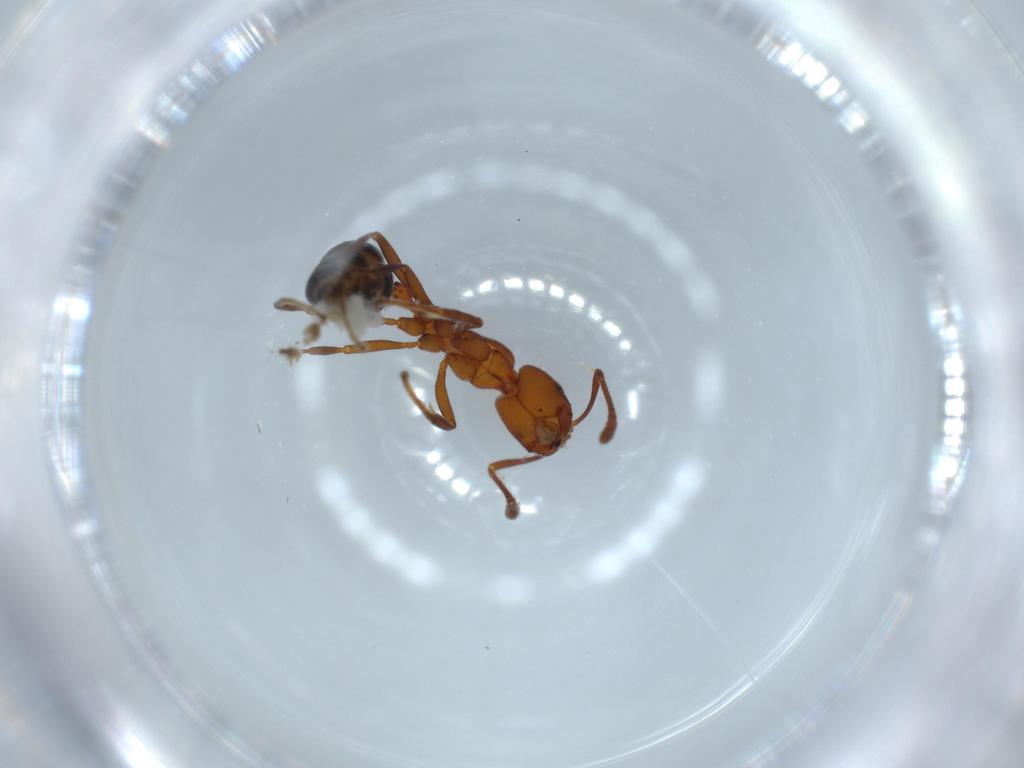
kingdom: Animalia
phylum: Arthropoda
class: Insecta
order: Hymenoptera
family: Formicidae
